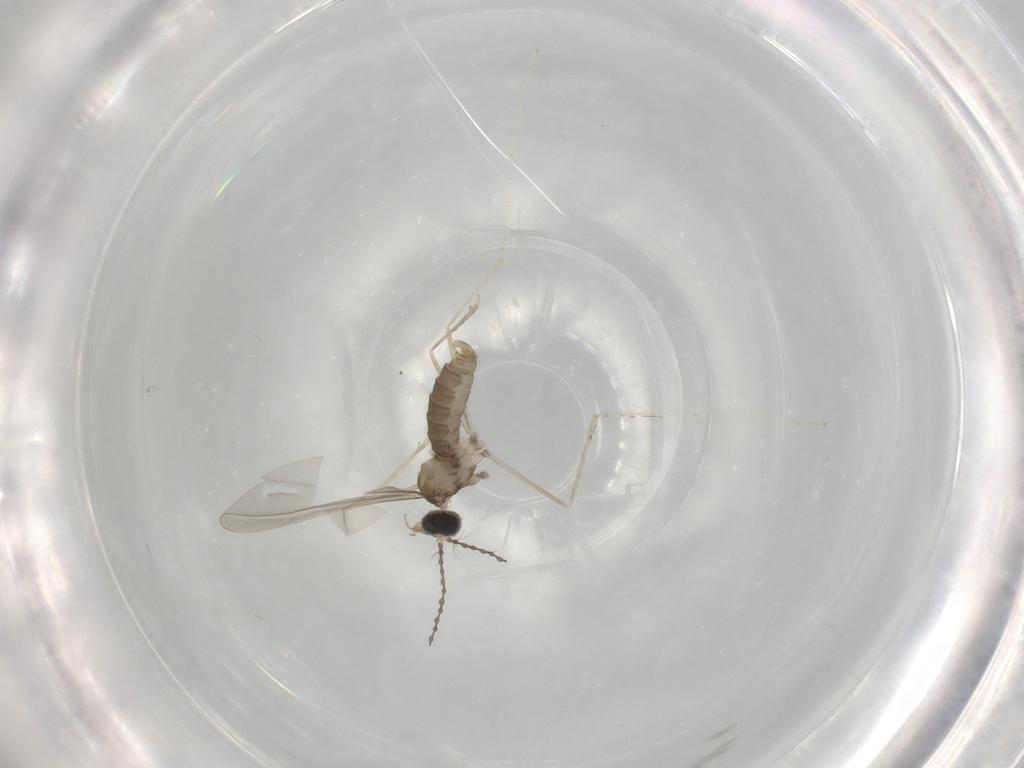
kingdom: Animalia
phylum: Arthropoda
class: Insecta
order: Diptera
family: Cecidomyiidae
